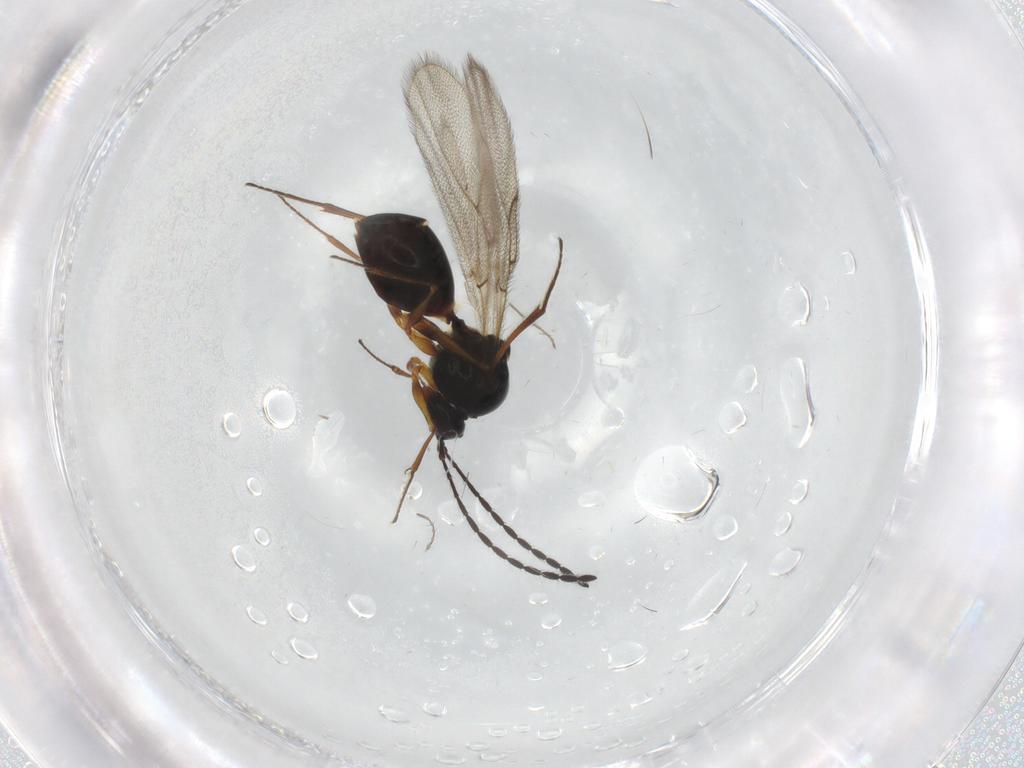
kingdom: Animalia
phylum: Arthropoda
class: Insecta
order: Hymenoptera
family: Figitidae
